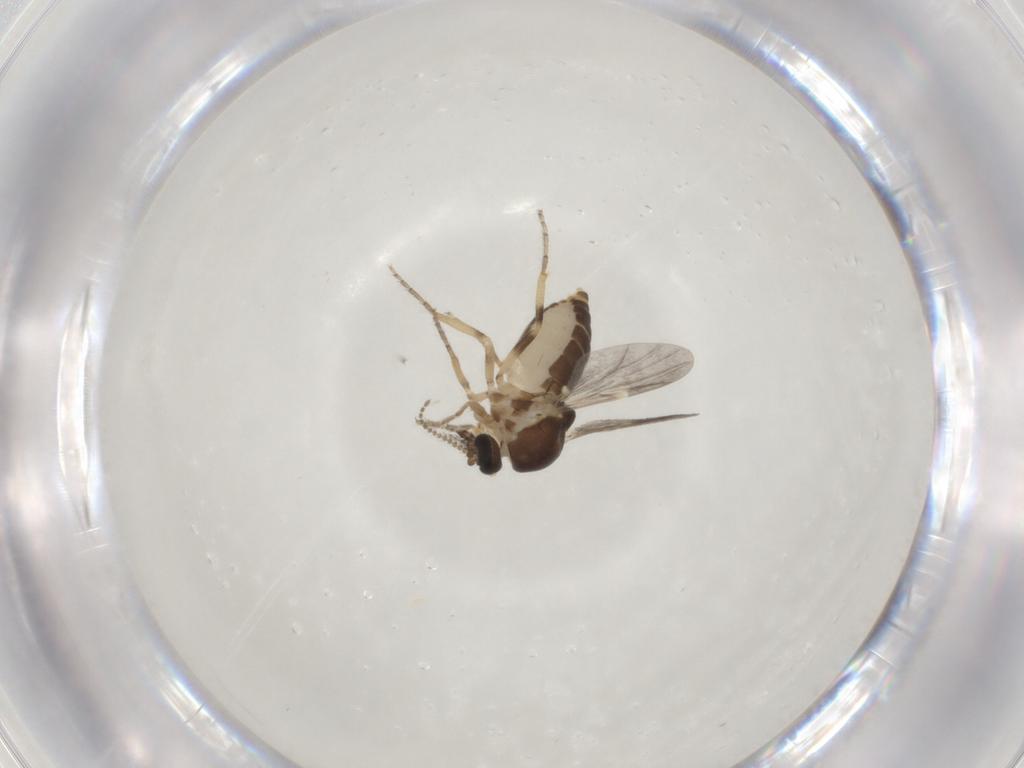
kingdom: Animalia
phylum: Arthropoda
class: Insecta
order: Diptera
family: Ceratopogonidae
